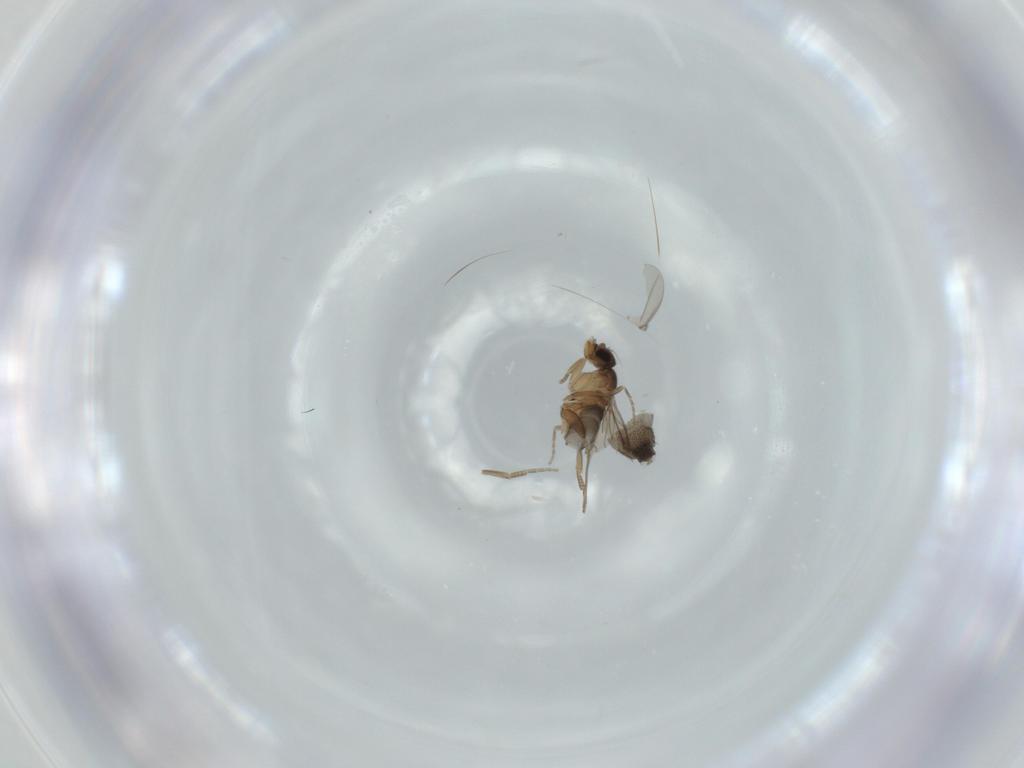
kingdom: Animalia
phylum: Arthropoda
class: Insecta
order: Diptera
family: Phoridae
